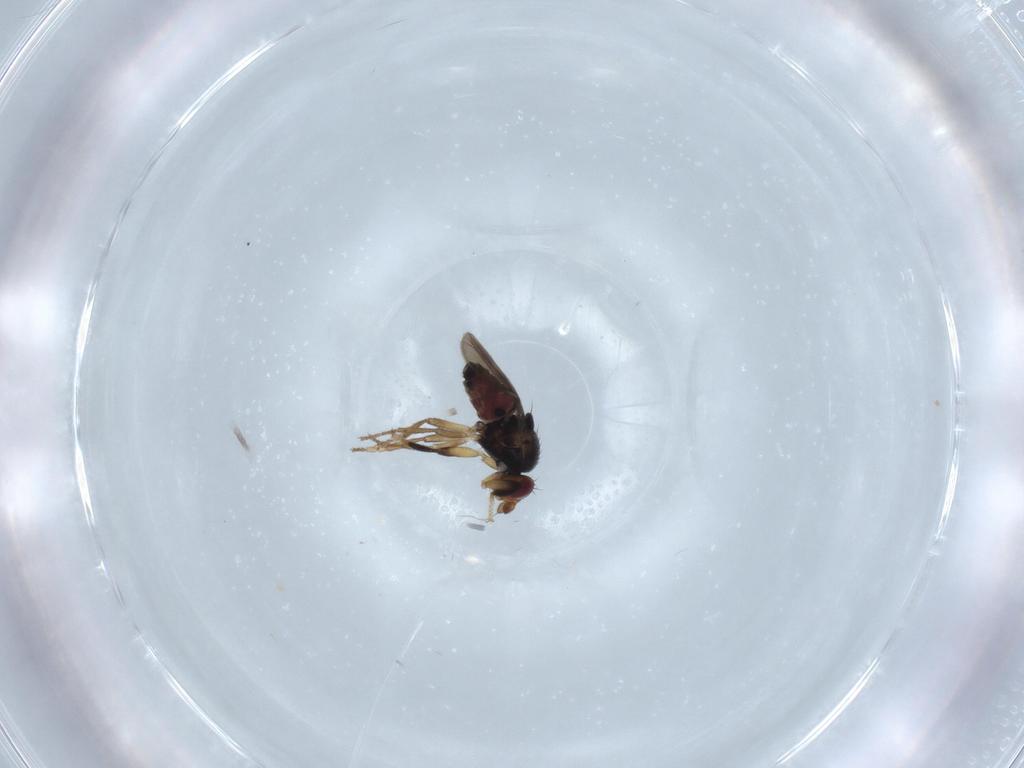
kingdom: Animalia
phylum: Arthropoda
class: Insecta
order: Diptera
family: Sphaeroceridae
